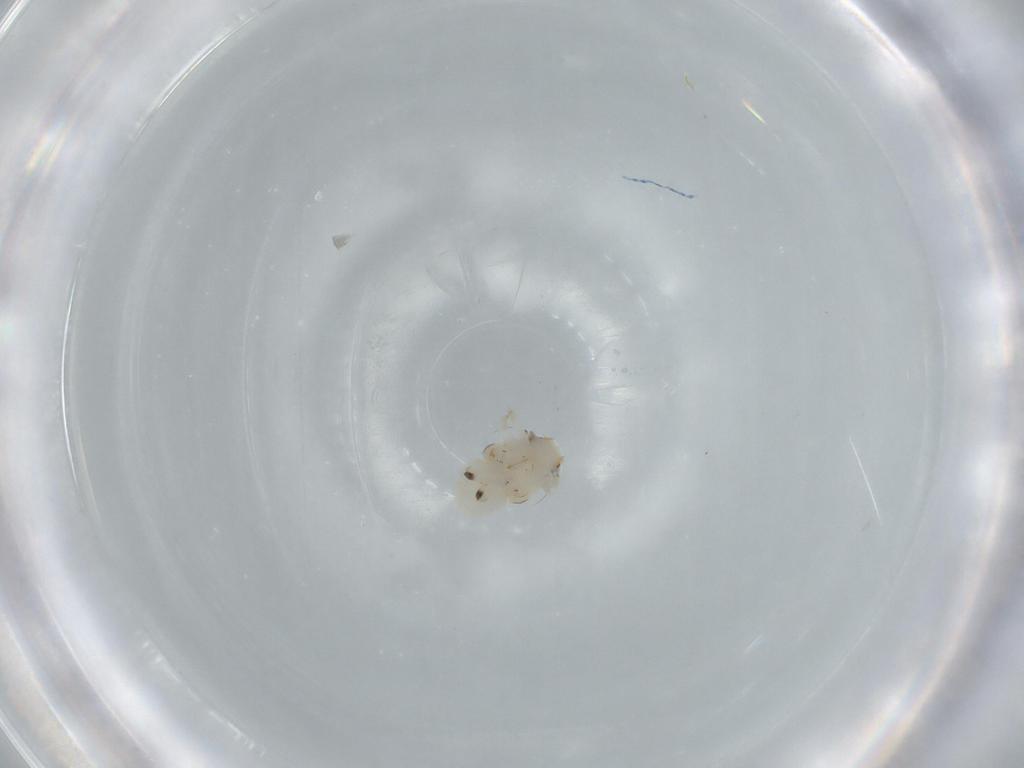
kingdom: Animalia
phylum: Arthropoda
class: Insecta
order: Hemiptera
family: Nogodinidae
